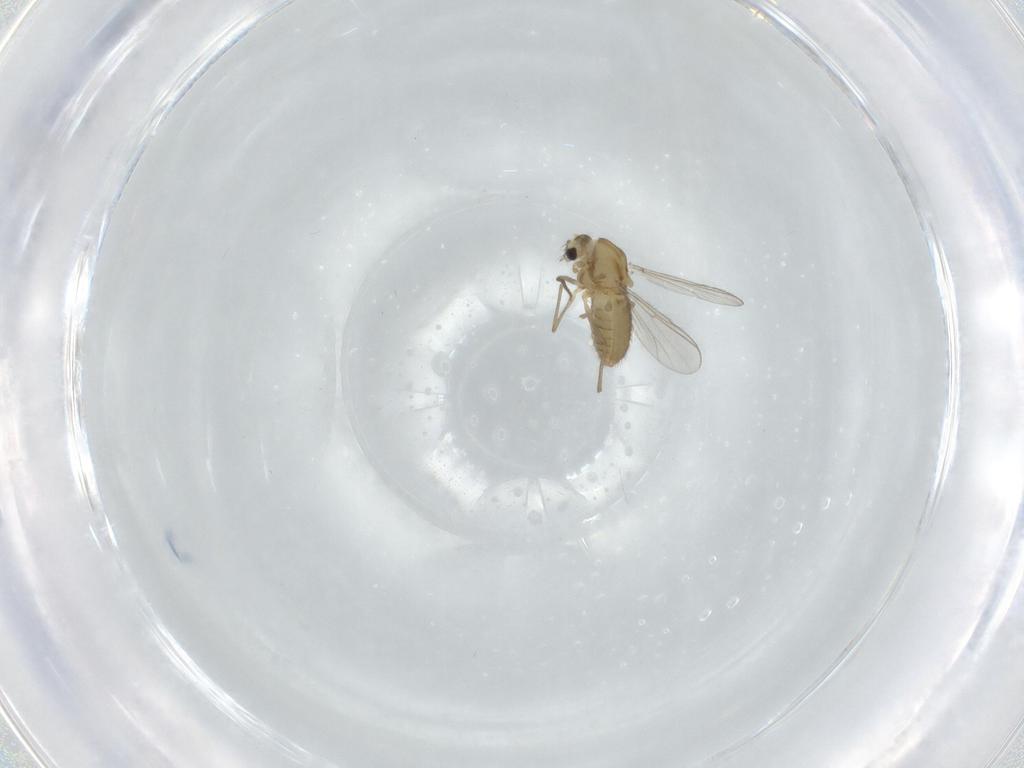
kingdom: Animalia
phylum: Arthropoda
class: Insecta
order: Diptera
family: Chironomidae
